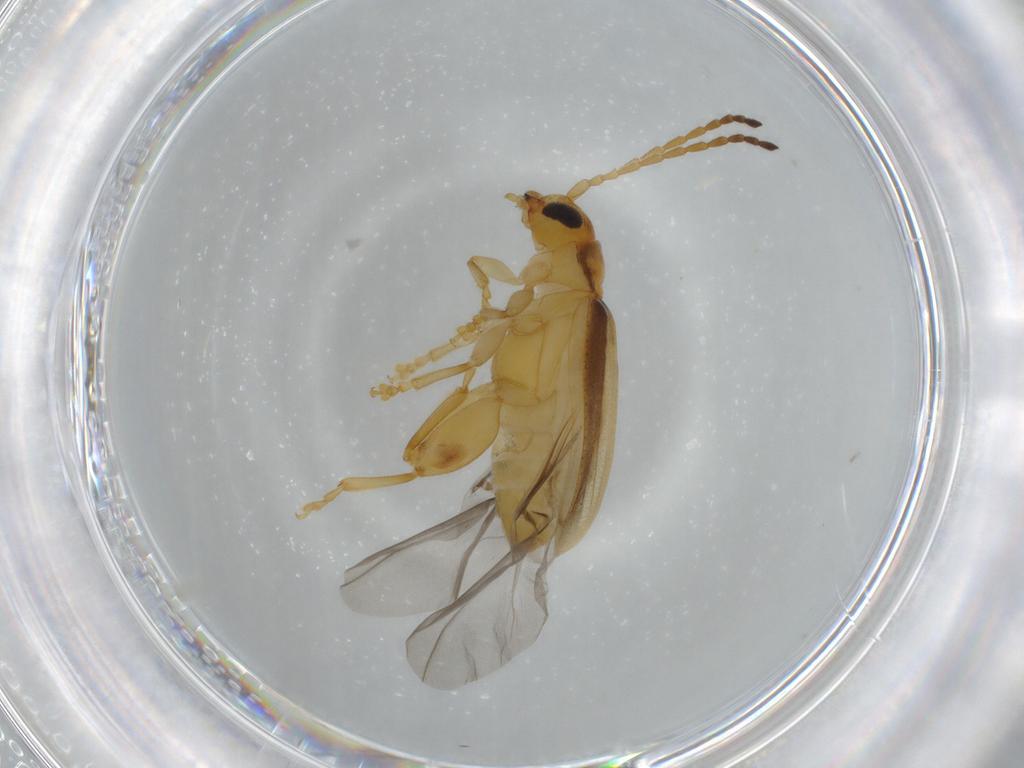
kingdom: Animalia
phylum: Arthropoda
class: Insecta
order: Coleoptera
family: Chrysomelidae
